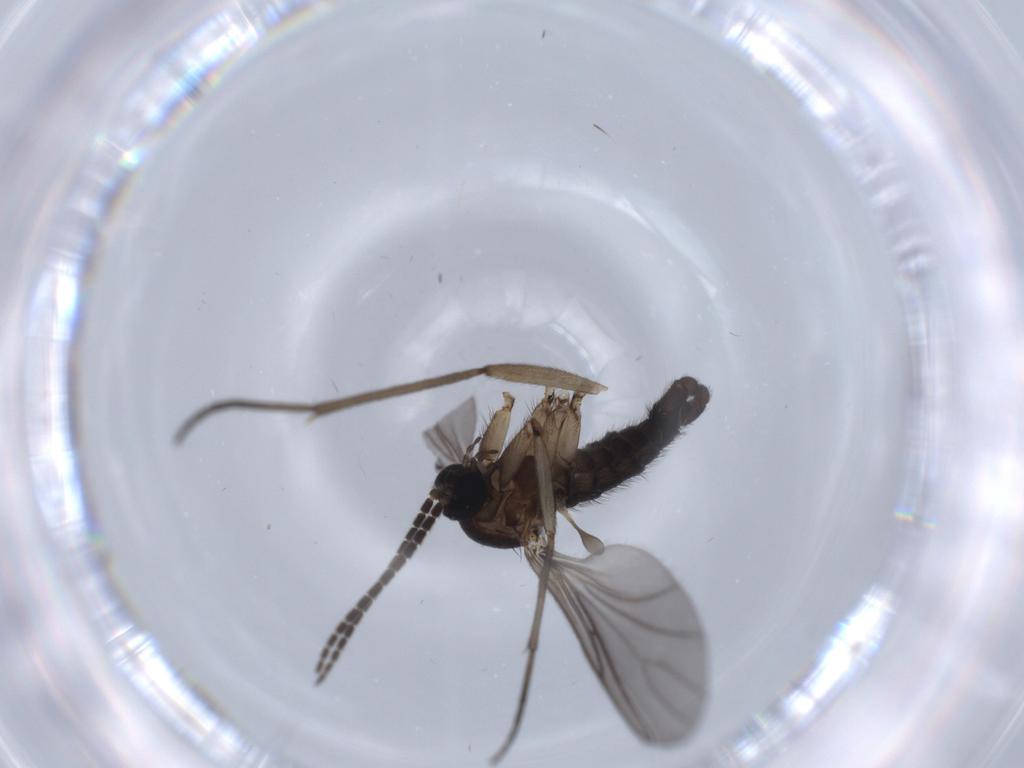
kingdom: Animalia
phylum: Arthropoda
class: Insecta
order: Diptera
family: Sciaridae
